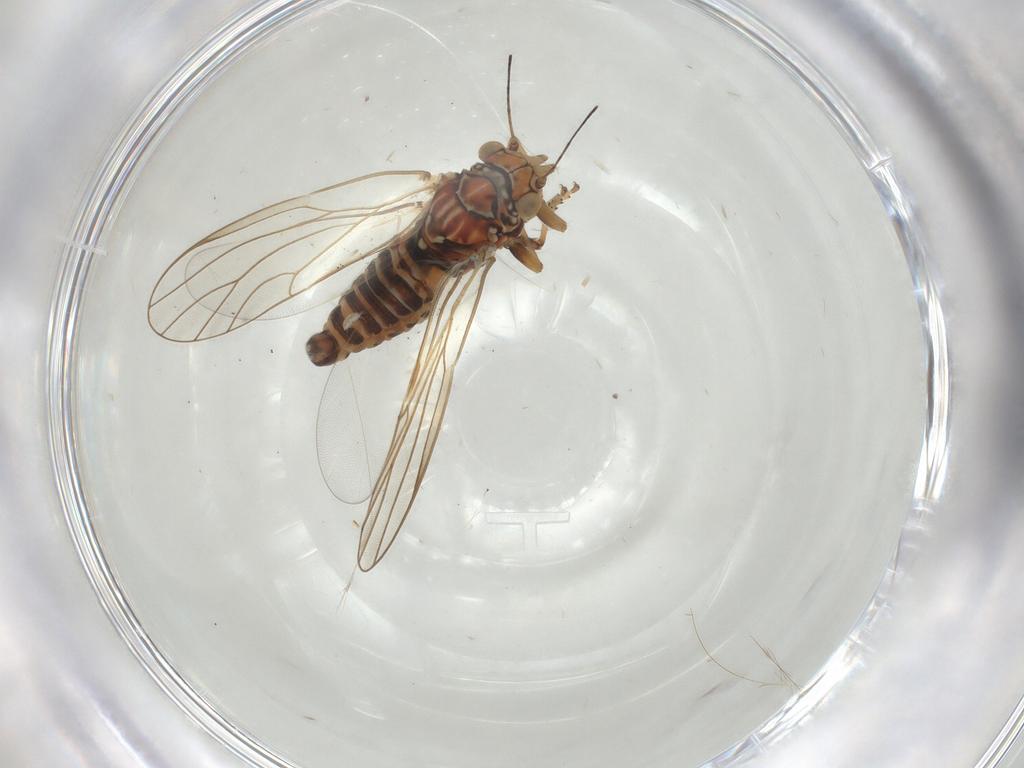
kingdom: Animalia
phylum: Arthropoda
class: Insecta
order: Hemiptera
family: Psyllidae
